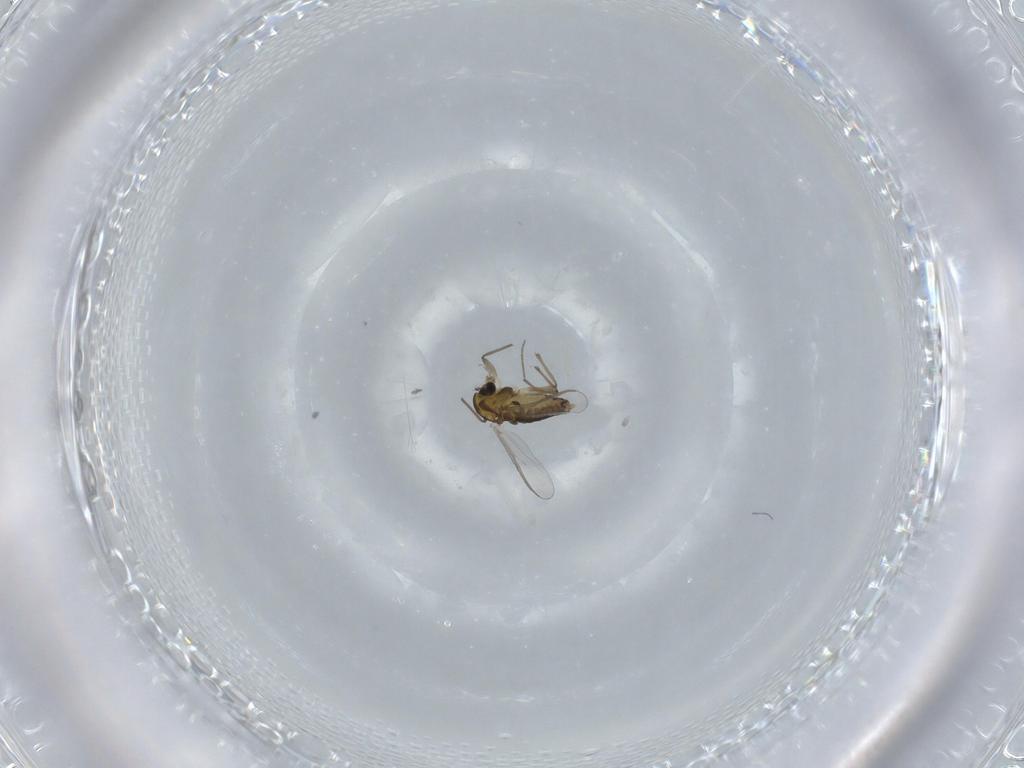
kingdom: Animalia
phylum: Arthropoda
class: Insecta
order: Diptera
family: Chironomidae
